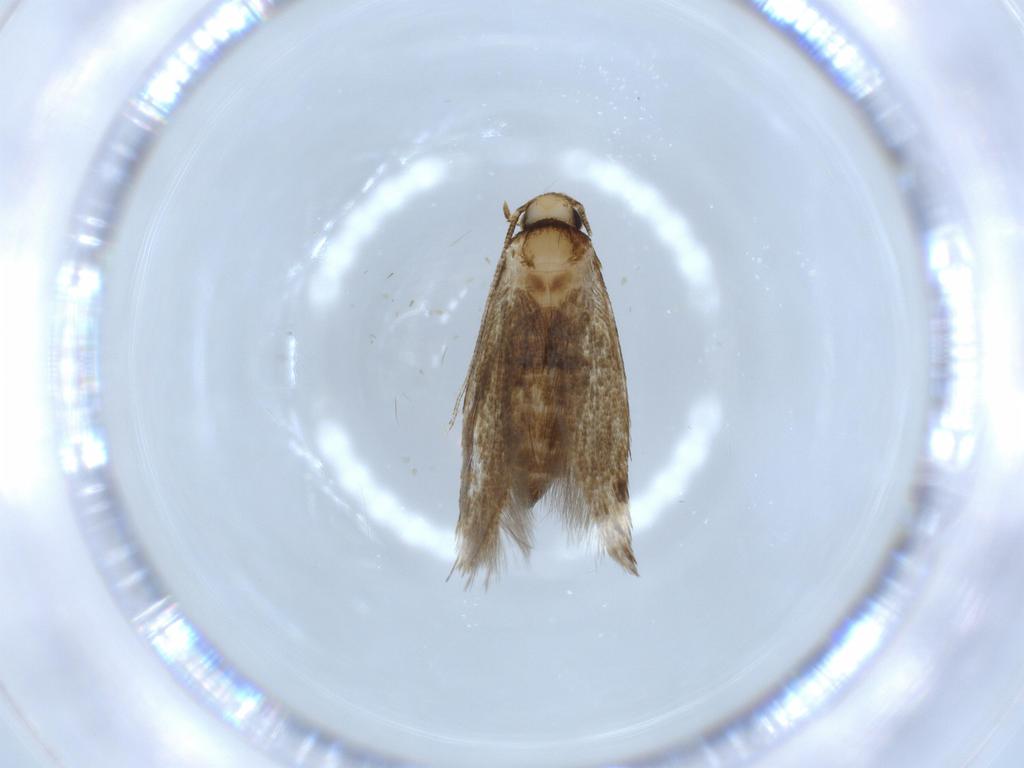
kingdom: Animalia
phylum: Arthropoda
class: Insecta
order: Lepidoptera
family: Tineidae
